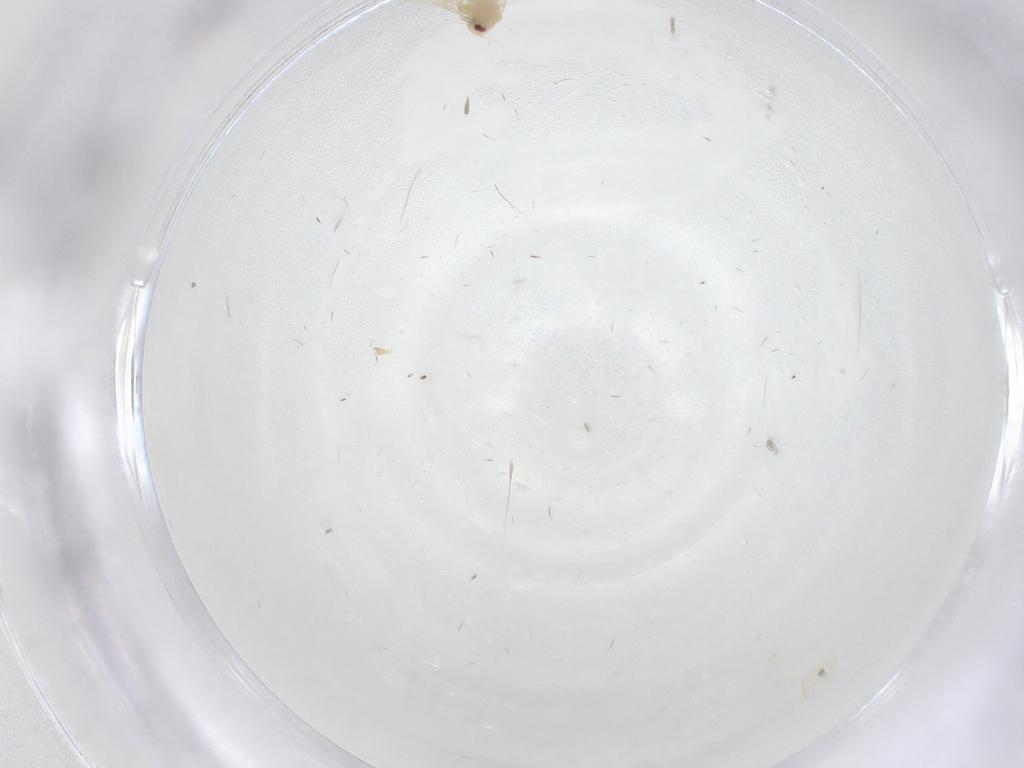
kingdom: Animalia
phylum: Arthropoda
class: Insecta
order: Diptera
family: Chironomidae
